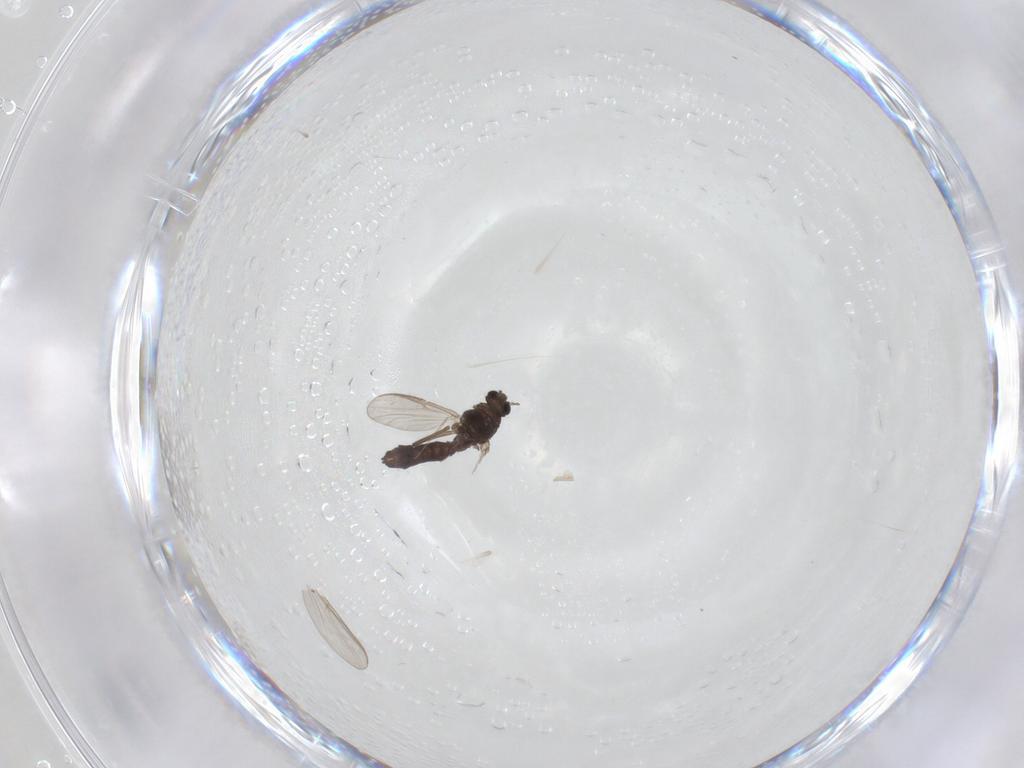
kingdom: Animalia
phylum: Arthropoda
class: Insecta
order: Diptera
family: Chironomidae
